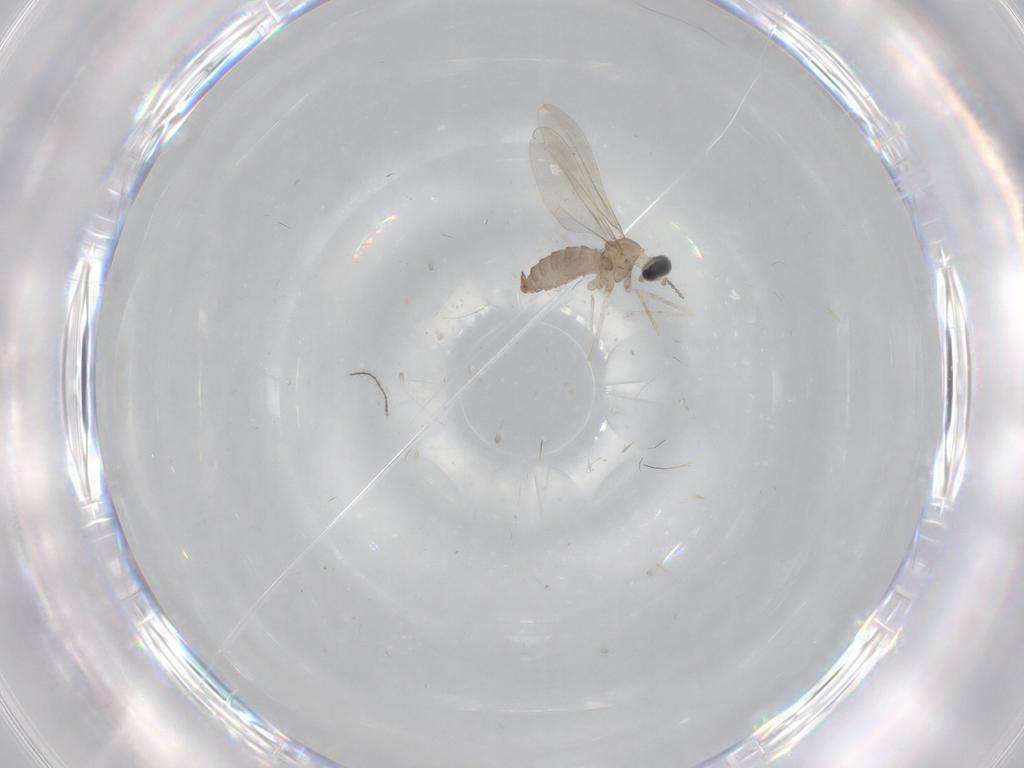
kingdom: Animalia
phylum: Arthropoda
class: Insecta
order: Diptera
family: Ceratopogonidae
